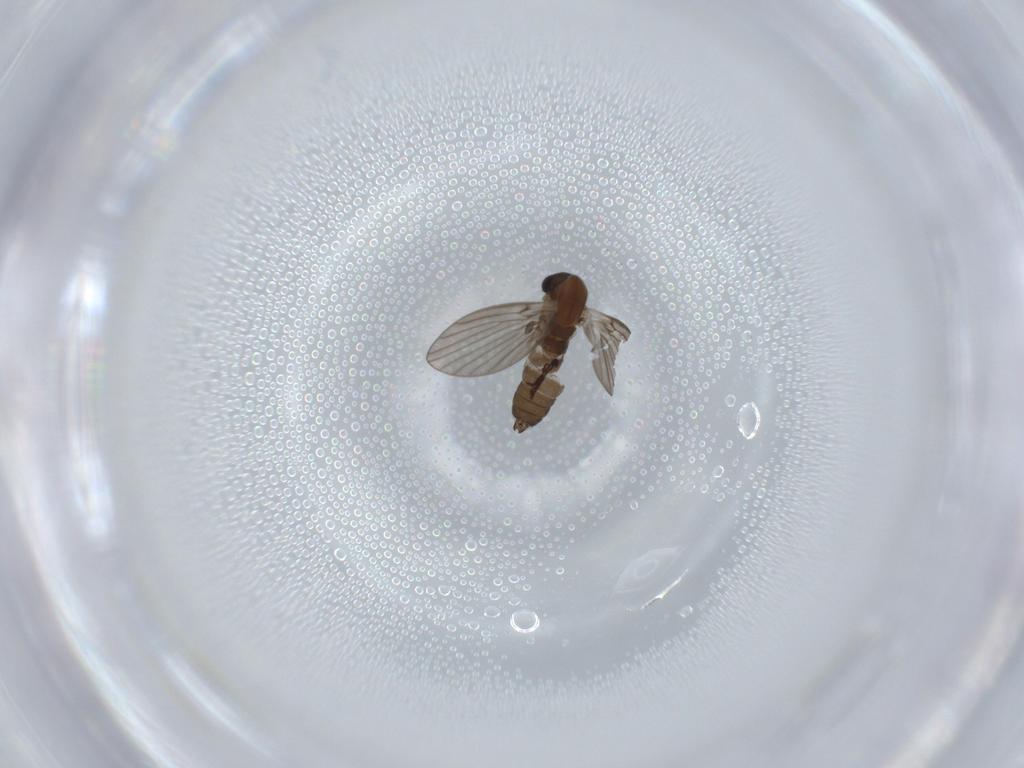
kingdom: Animalia
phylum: Arthropoda
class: Insecta
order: Diptera
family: Psychodidae
